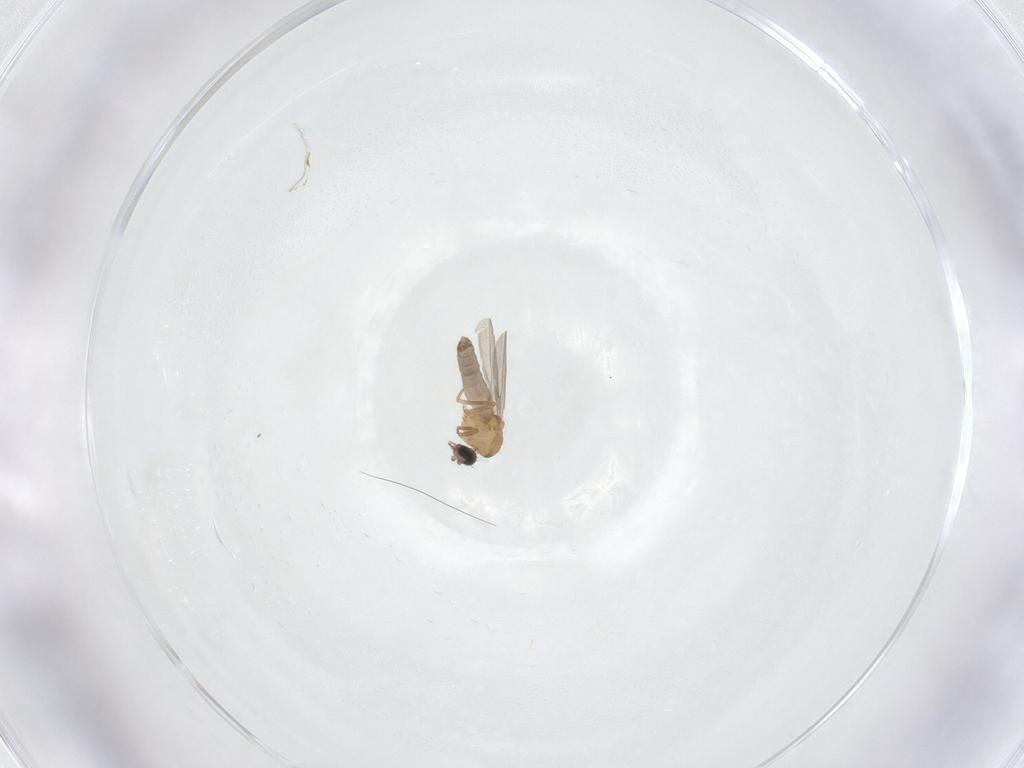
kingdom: Animalia
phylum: Arthropoda
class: Insecta
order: Diptera
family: Ceratopogonidae
